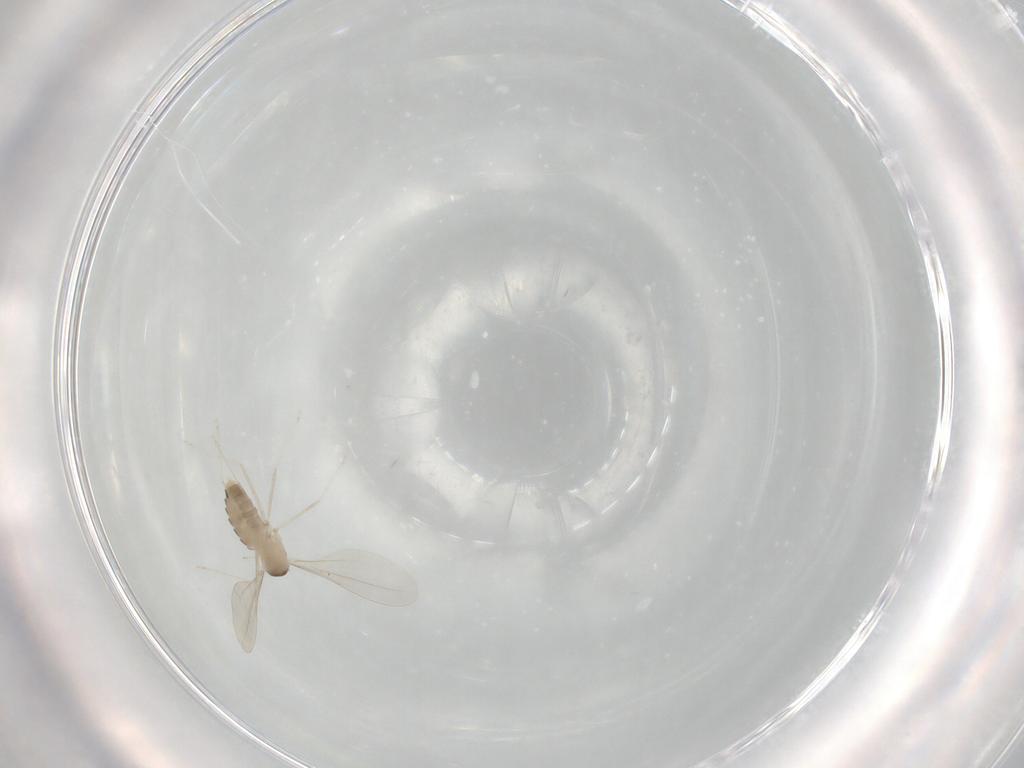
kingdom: Animalia
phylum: Arthropoda
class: Insecta
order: Diptera
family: Cecidomyiidae
